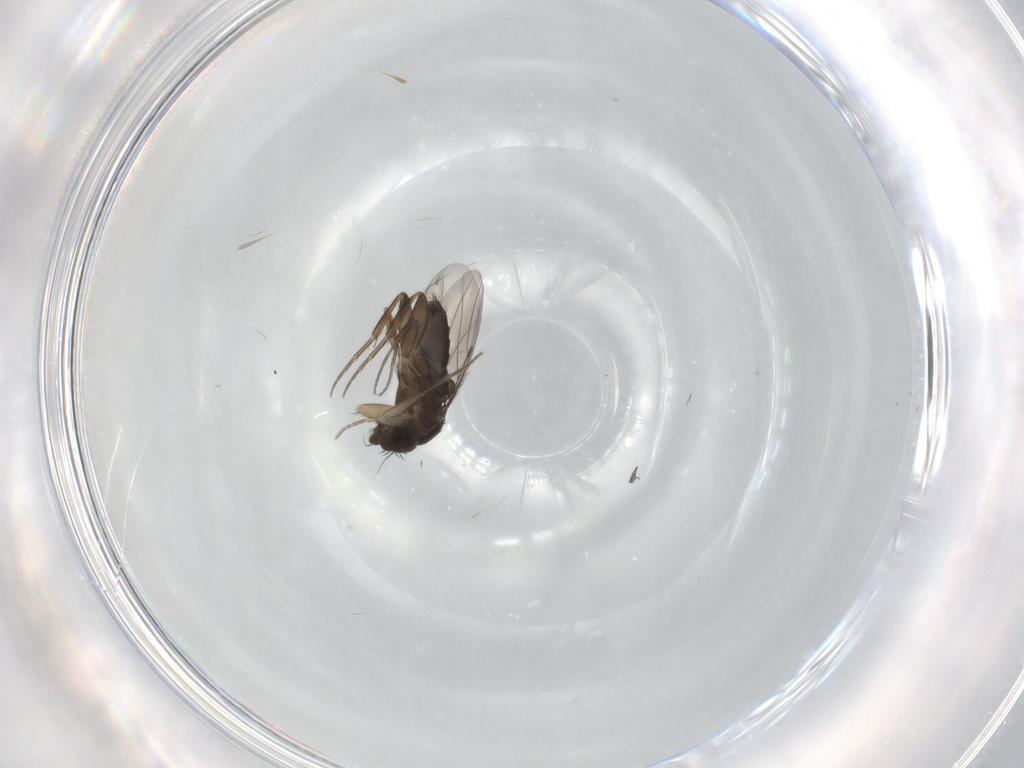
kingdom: Animalia
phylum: Arthropoda
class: Insecta
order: Diptera
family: Phoridae
